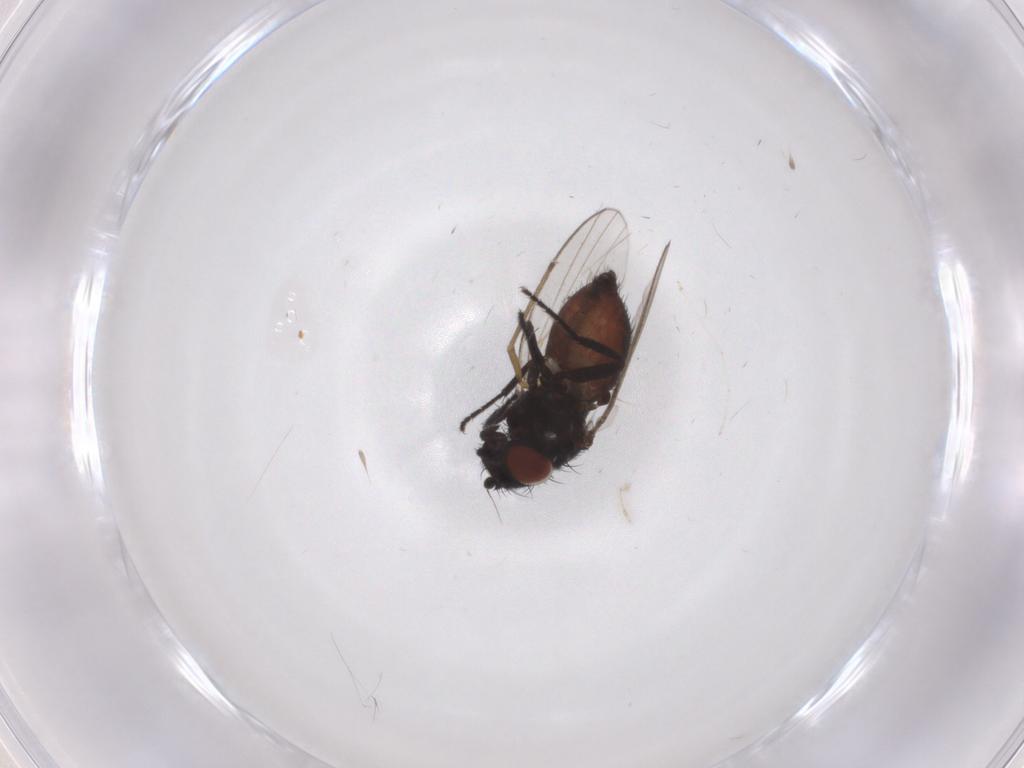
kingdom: Animalia
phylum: Arthropoda
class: Insecta
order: Diptera
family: Milichiidae
